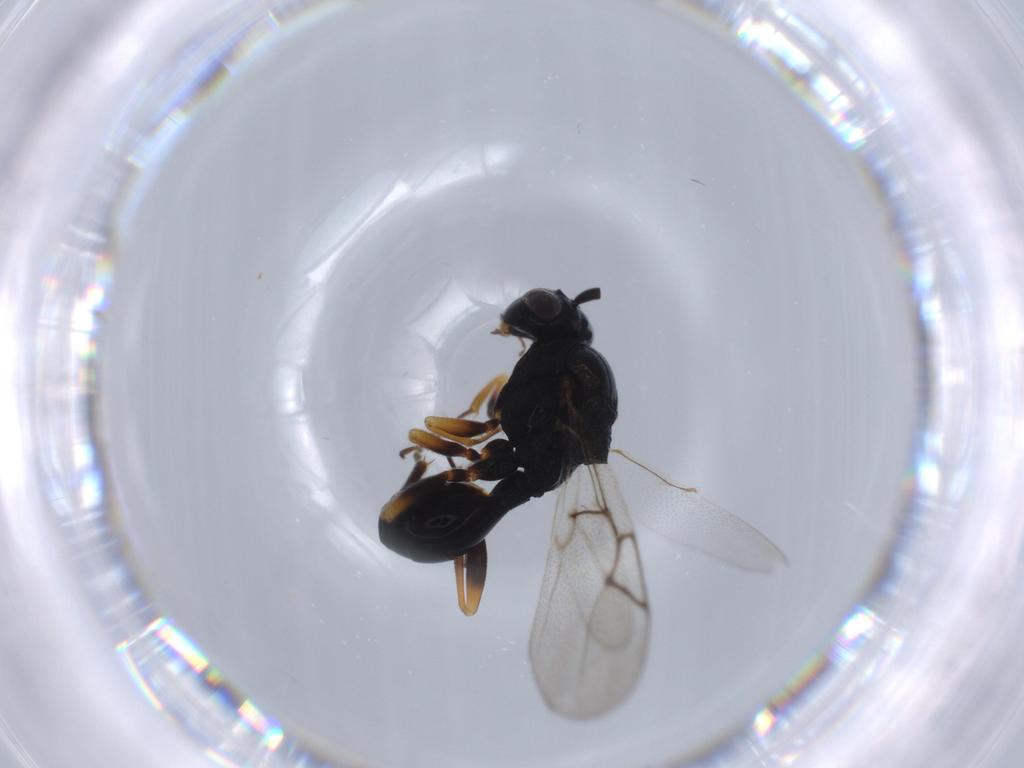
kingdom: Animalia
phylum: Arthropoda
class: Insecta
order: Hymenoptera
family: Figitidae
